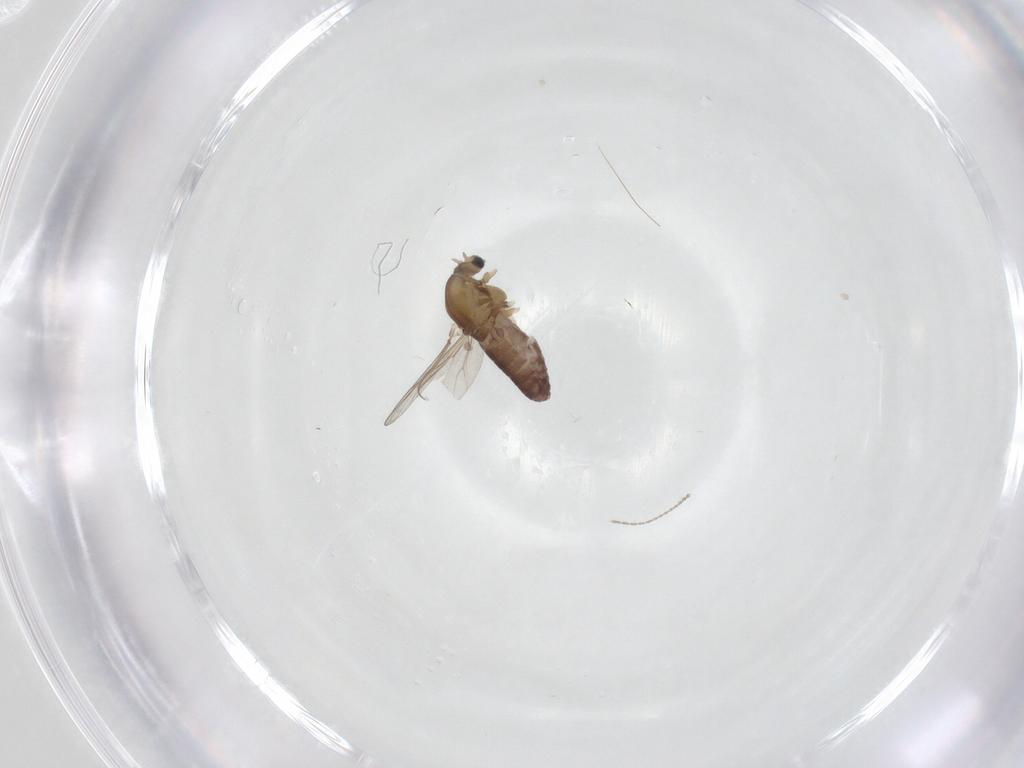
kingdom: Animalia
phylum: Arthropoda
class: Insecta
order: Diptera
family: Chironomidae
